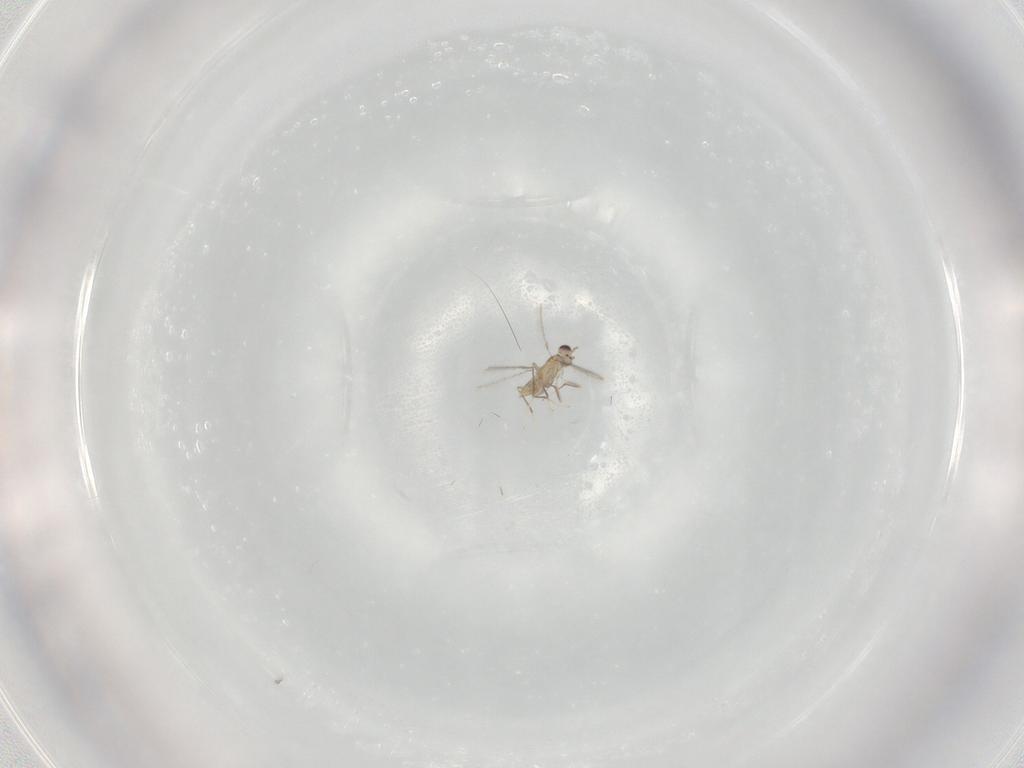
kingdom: Animalia
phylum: Arthropoda
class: Insecta
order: Hymenoptera
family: Mymaridae
